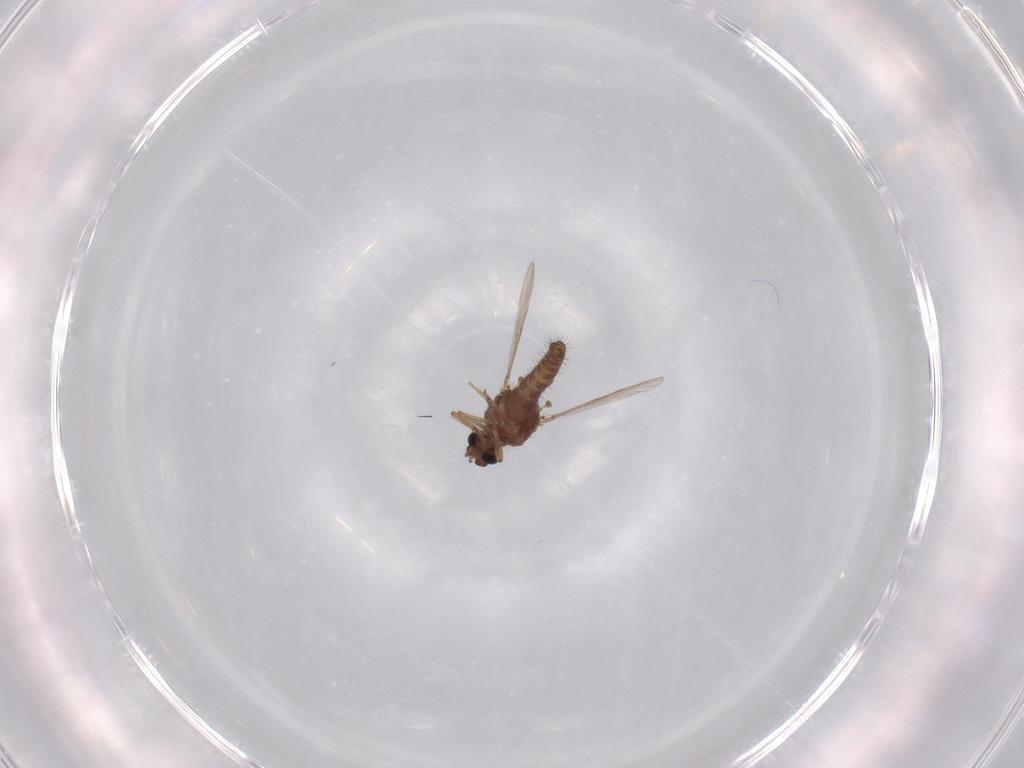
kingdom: Animalia
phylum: Arthropoda
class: Insecta
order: Diptera
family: Ceratopogonidae
